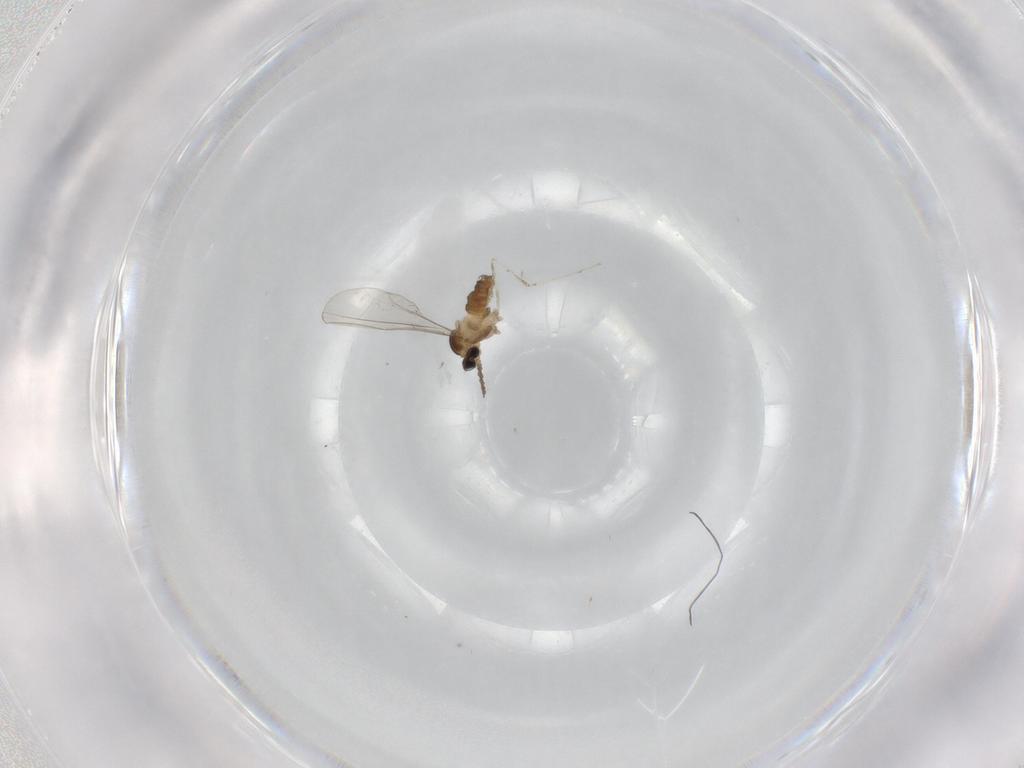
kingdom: Animalia
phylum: Arthropoda
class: Insecta
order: Diptera
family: Cecidomyiidae
